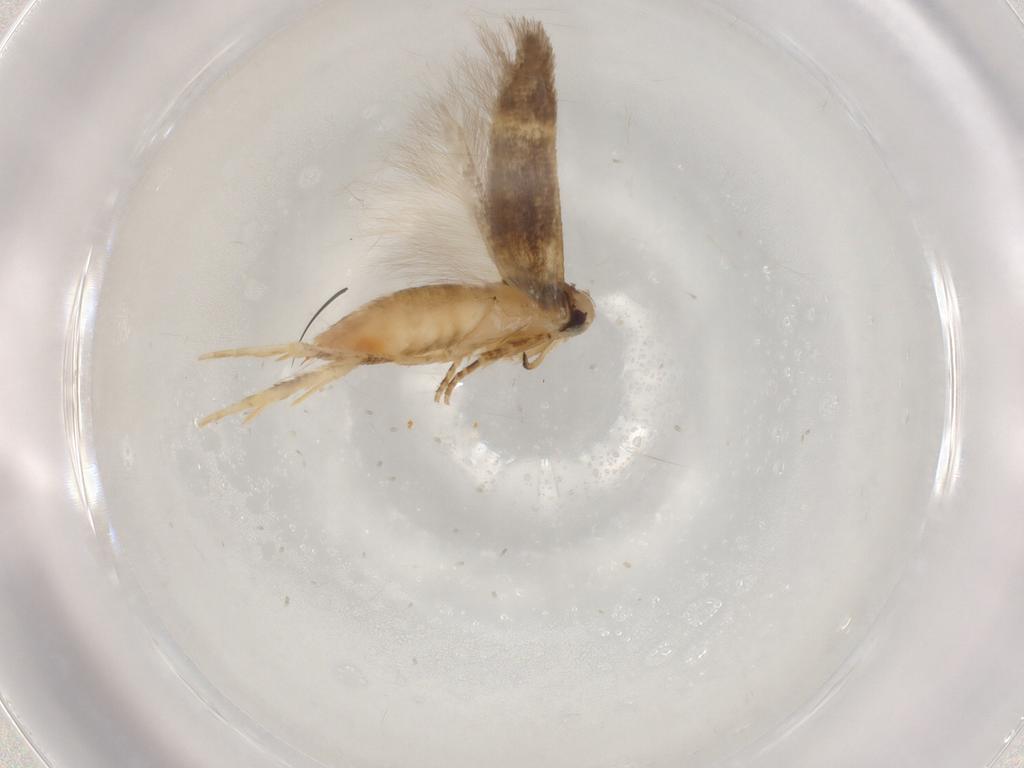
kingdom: Animalia
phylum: Arthropoda
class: Insecta
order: Lepidoptera
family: Cosmopterigidae
